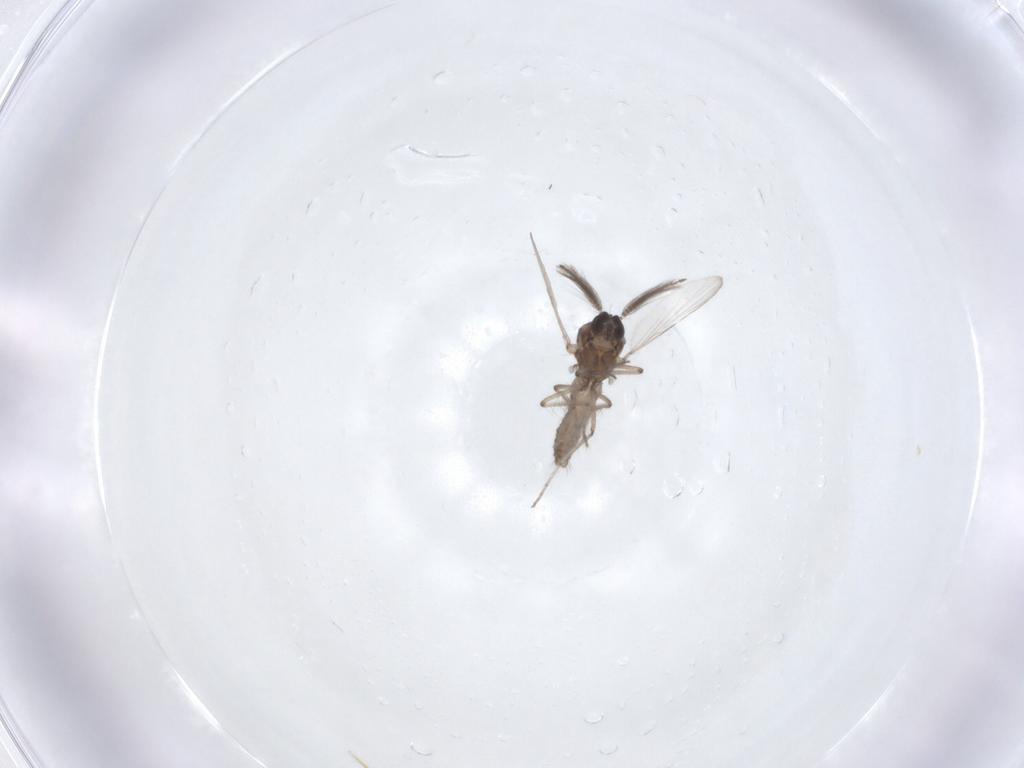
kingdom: Animalia
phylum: Arthropoda
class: Insecta
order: Diptera
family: Ceratopogonidae
